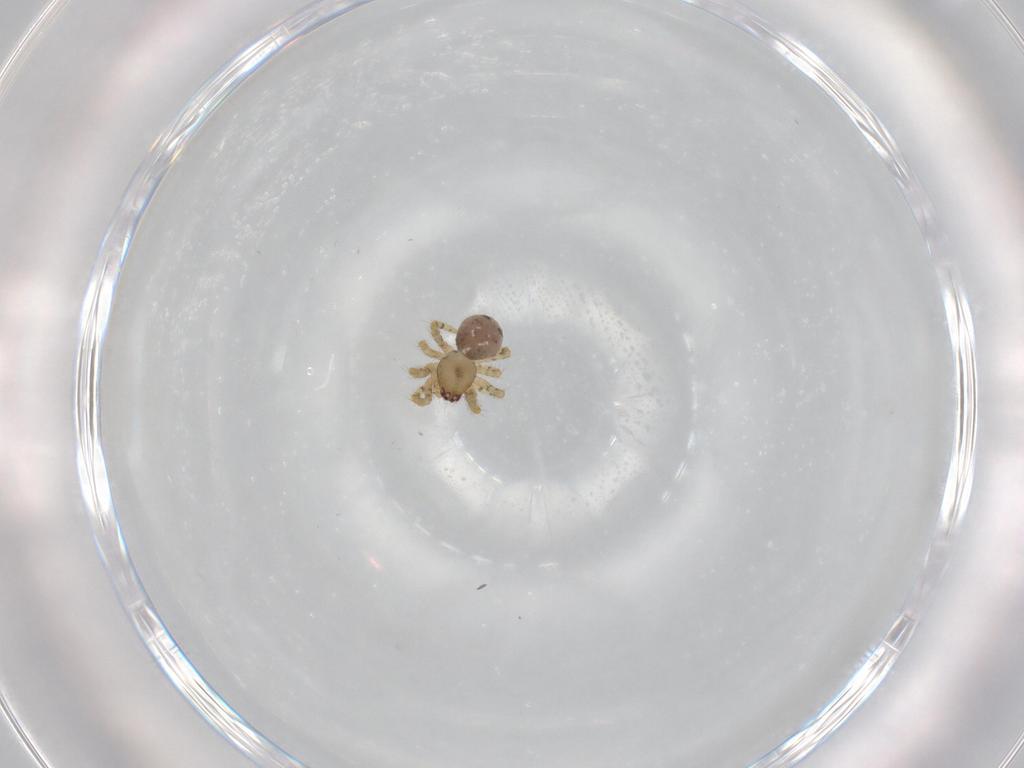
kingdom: Animalia
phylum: Arthropoda
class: Arachnida
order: Araneae
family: Theridiidae
